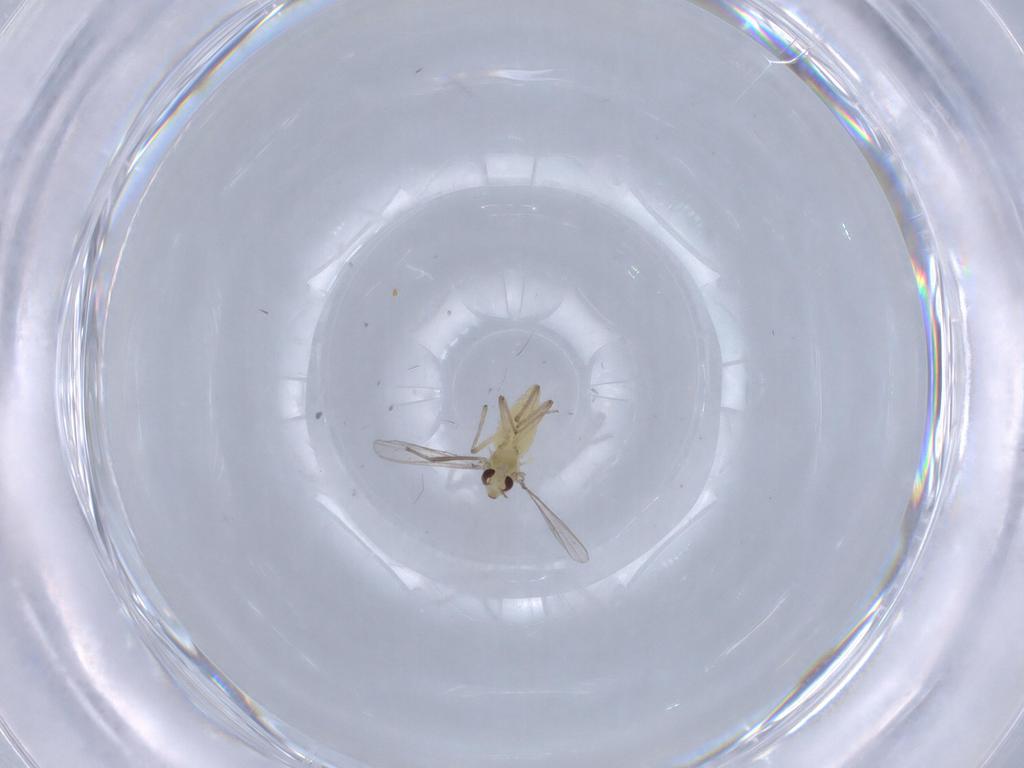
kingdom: Animalia
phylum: Arthropoda
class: Insecta
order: Diptera
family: Chironomidae
